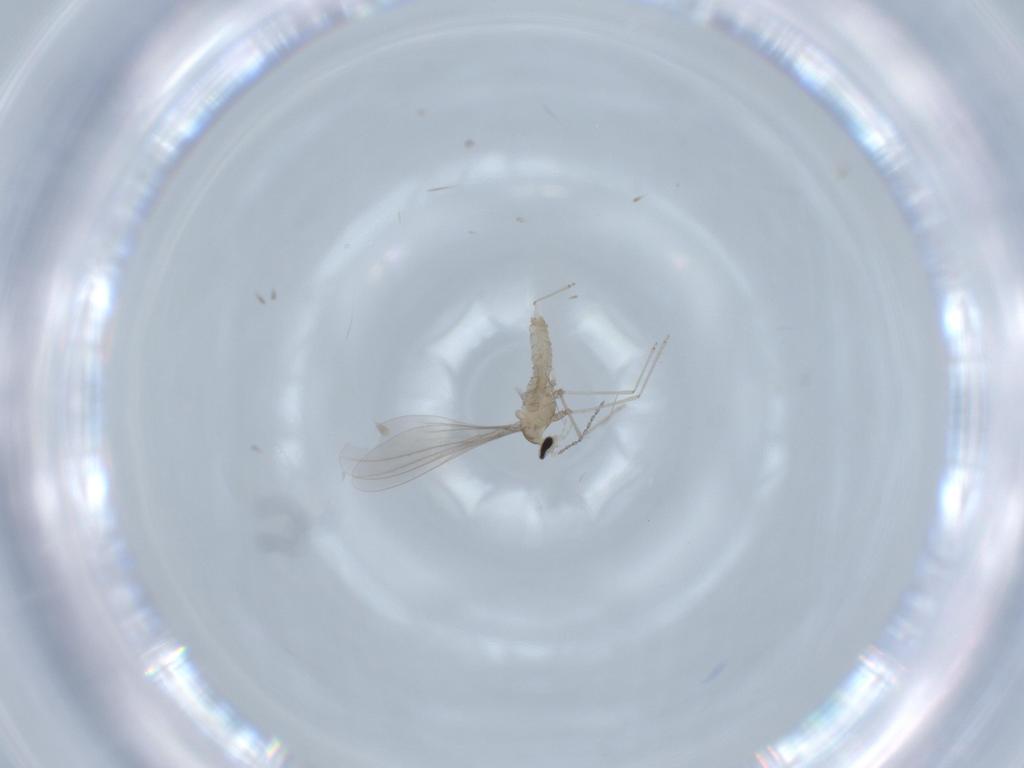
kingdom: Animalia
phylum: Arthropoda
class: Insecta
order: Diptera
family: Cecidomyiidae
